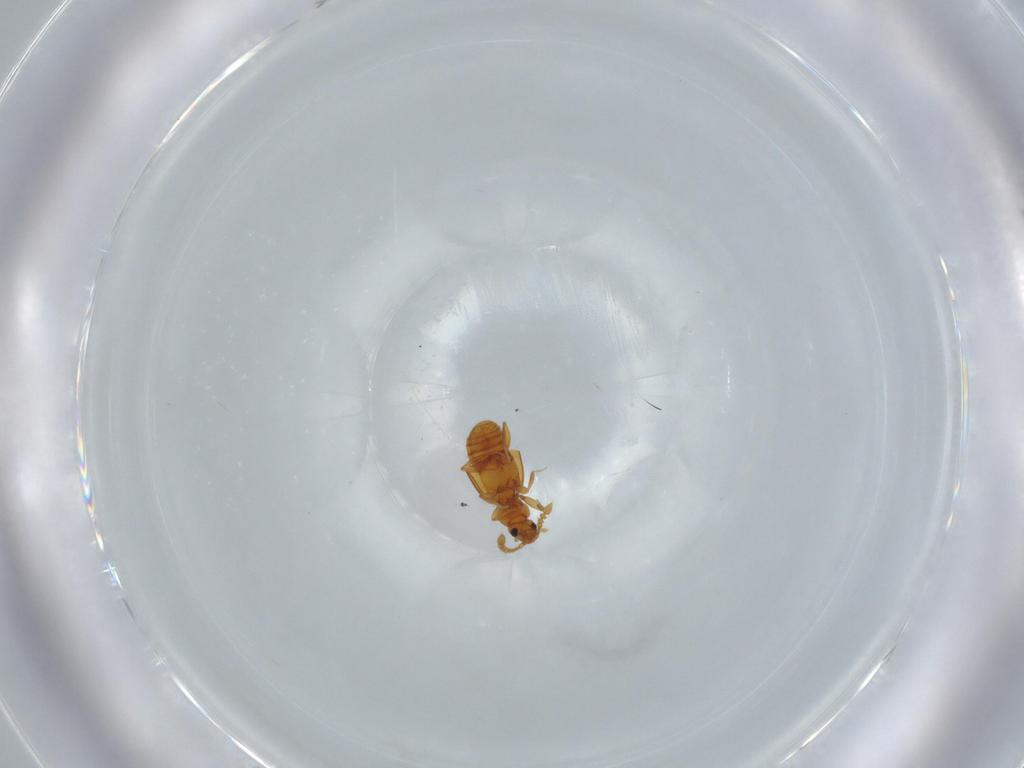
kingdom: Animalia
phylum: Arthropoda
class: Insecta
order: Coleoptera
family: Staphylinidae
